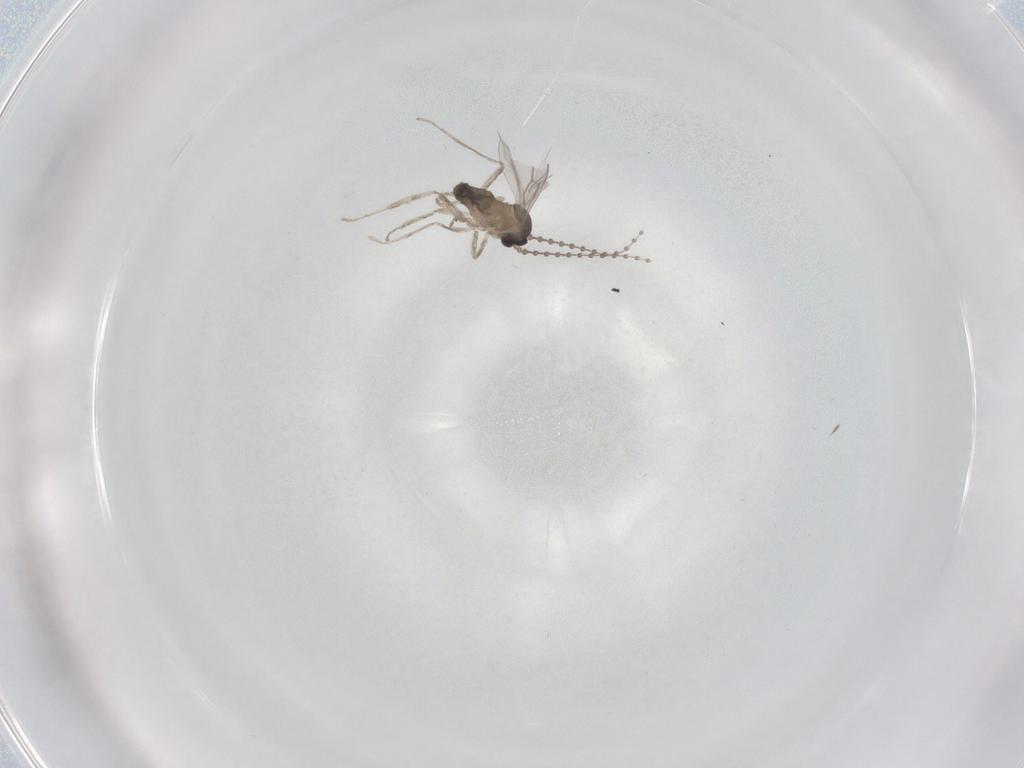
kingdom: Animalia
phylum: Arthropoda
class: Insecta
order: Diptera
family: Cecidomyiidae
